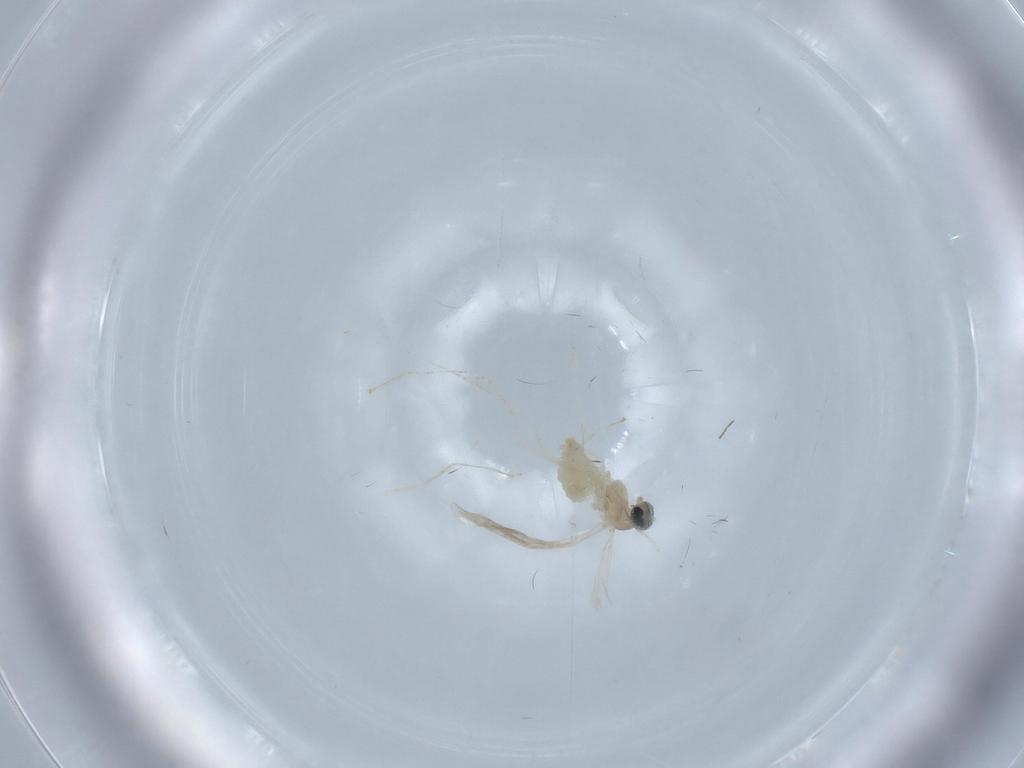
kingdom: Animalia
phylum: Arthropoda
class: Insecta
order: Diptera
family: Cecidomyiidae
